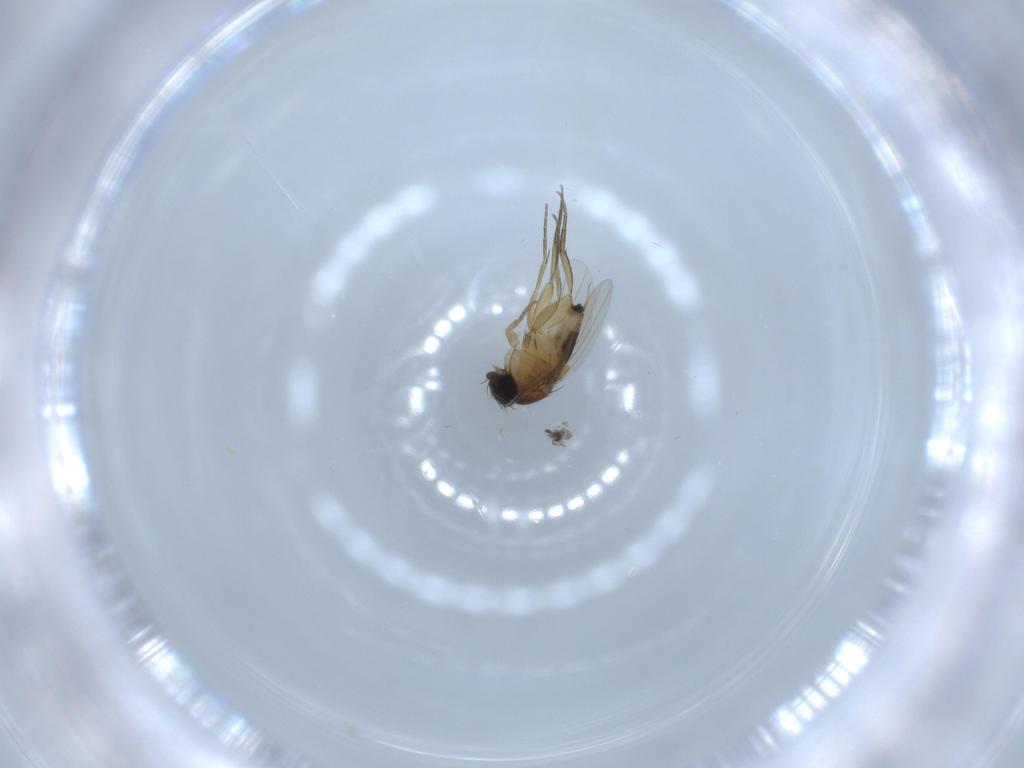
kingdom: Animalia
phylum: Arthropoda
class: Insecta
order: Diptera
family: Phoridae
